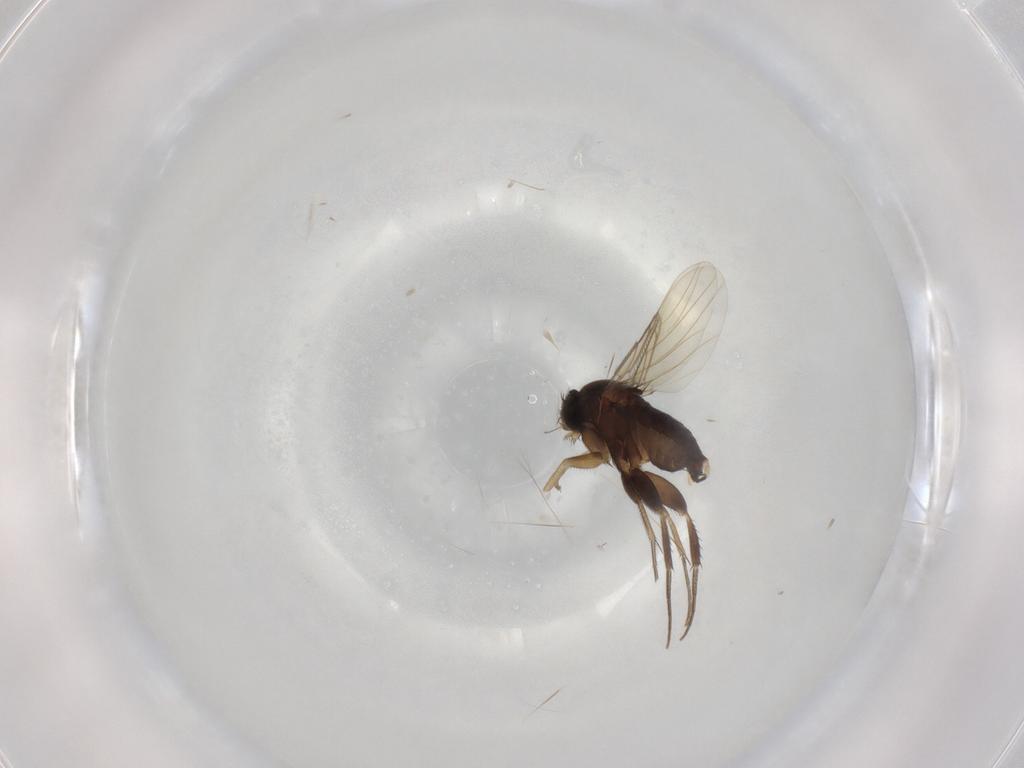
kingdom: Animalia
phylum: Arthropoda
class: Insecta
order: Diptera
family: Phoridae
